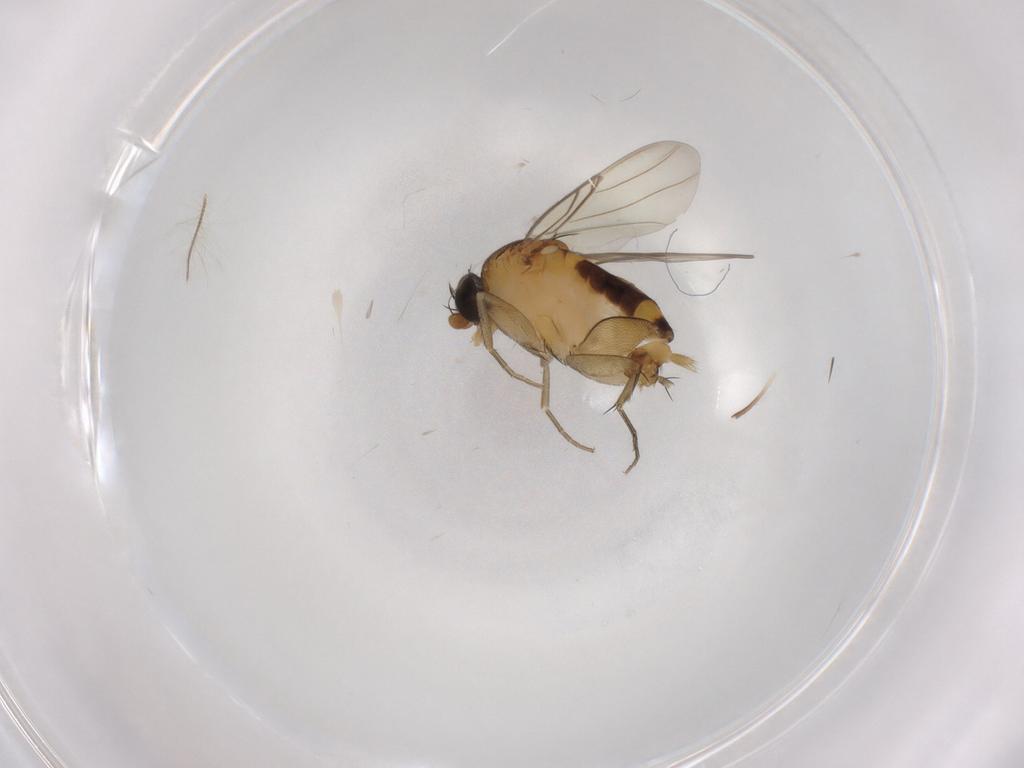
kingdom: Animalia
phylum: Arthropoda
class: Insecta
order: Diptera
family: Phoridae
